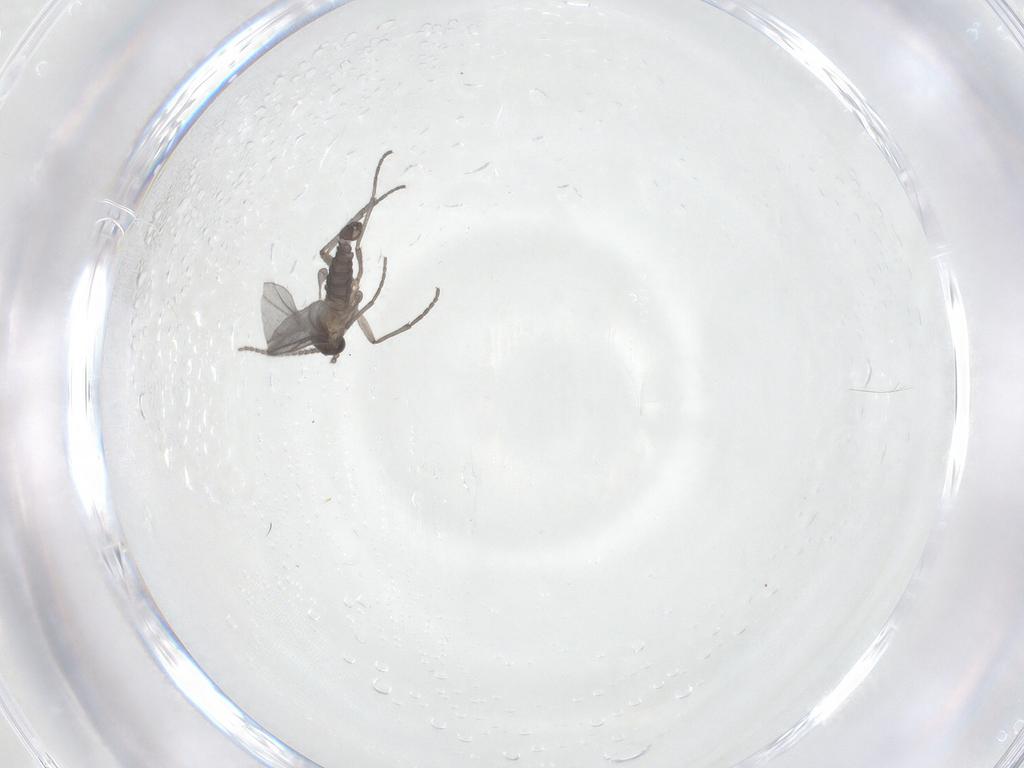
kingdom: Animalia
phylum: Arthropoda
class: Insecta
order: Diptera
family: Sciaridae
